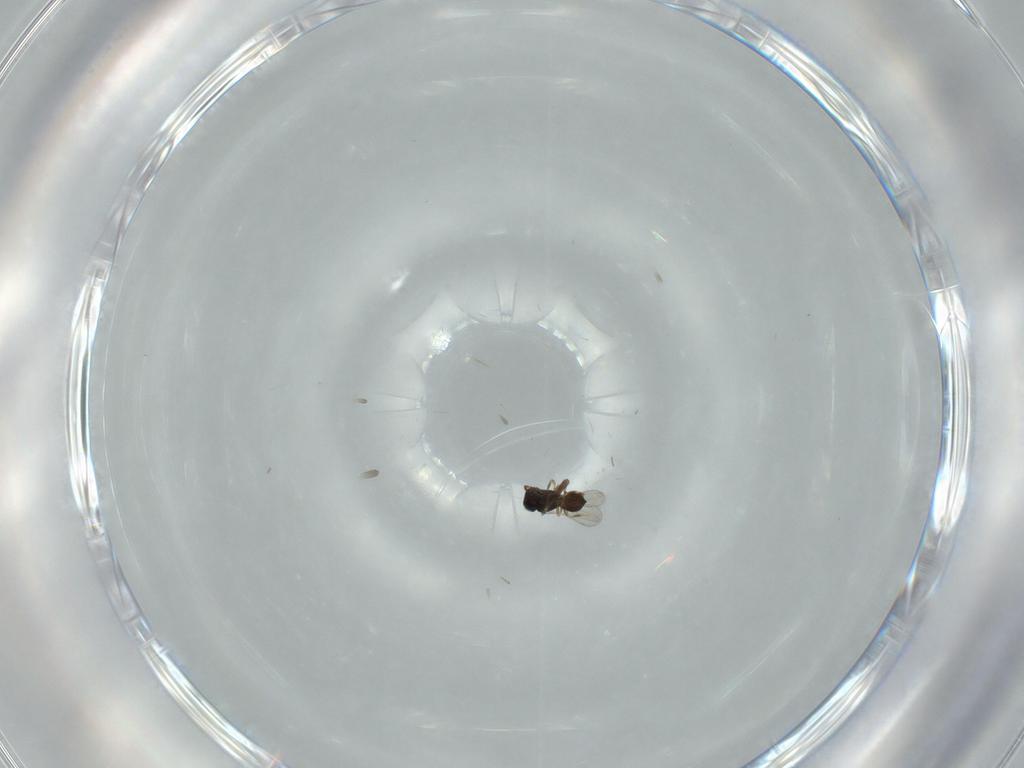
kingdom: Animalia
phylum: Arthropoda
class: Insecta
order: Hymenoptera
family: Scelionidae
